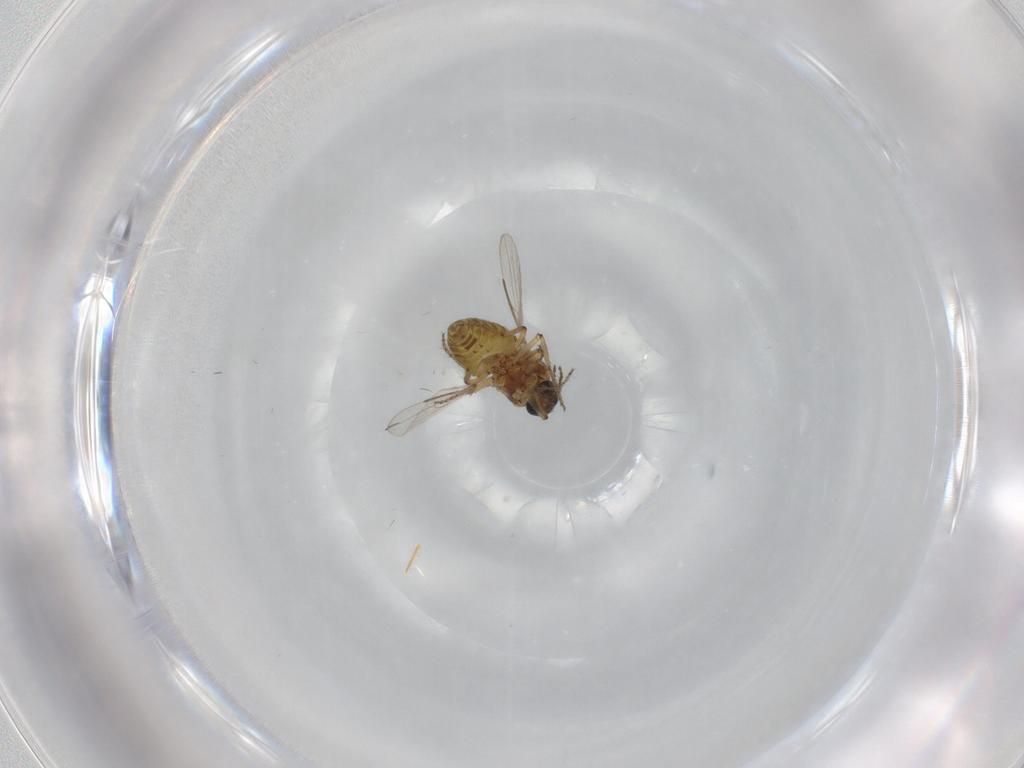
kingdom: Animalia
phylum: Arthropoda
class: Insecta
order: Diptera
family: Ceratopogonidae
